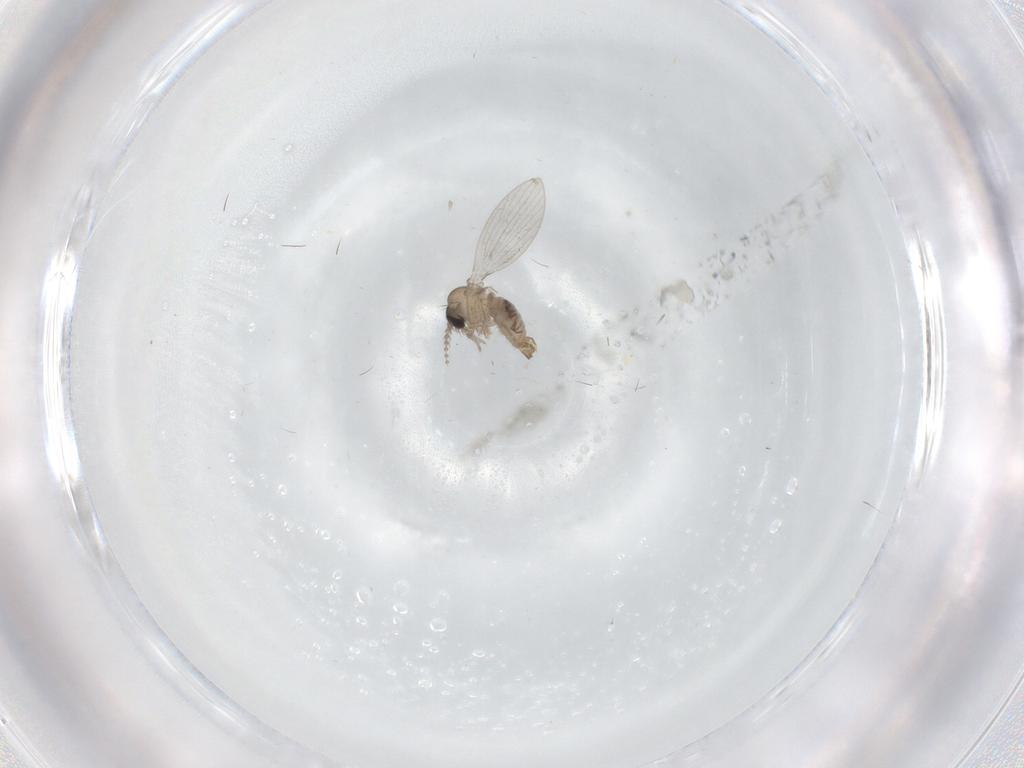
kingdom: Animalia
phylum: Arthropoda
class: Insecta
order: Diptera
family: Psychodidae
